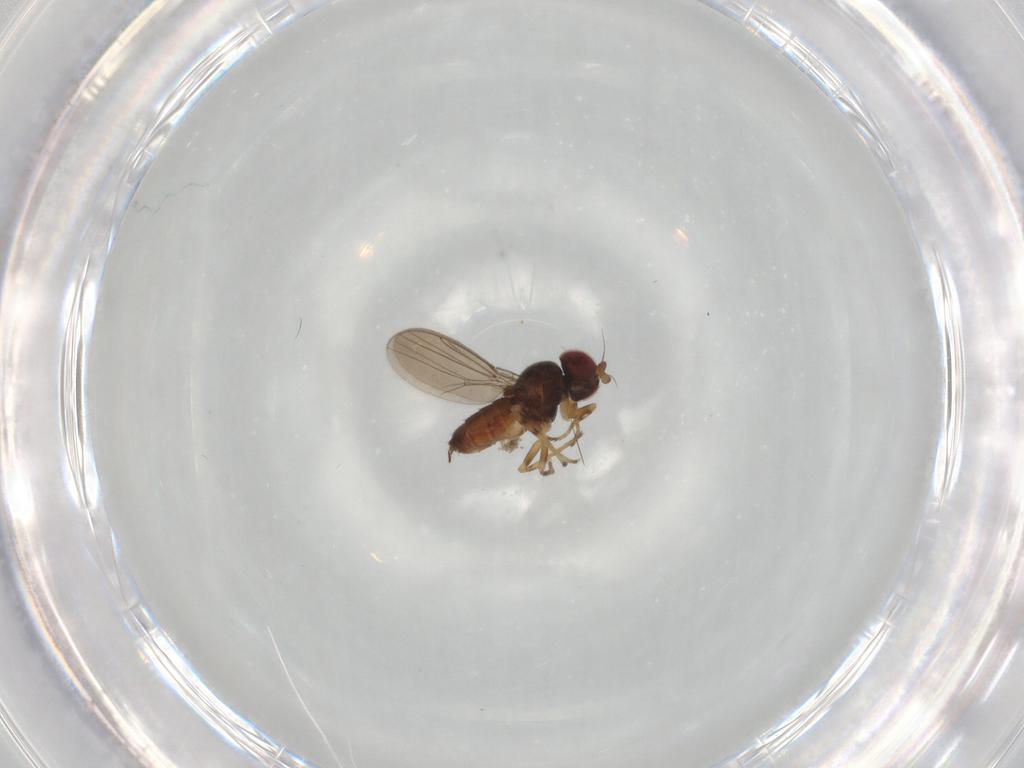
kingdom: Animalia
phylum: Arthropoda
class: Insecta
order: Diptera
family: Chloropidae
